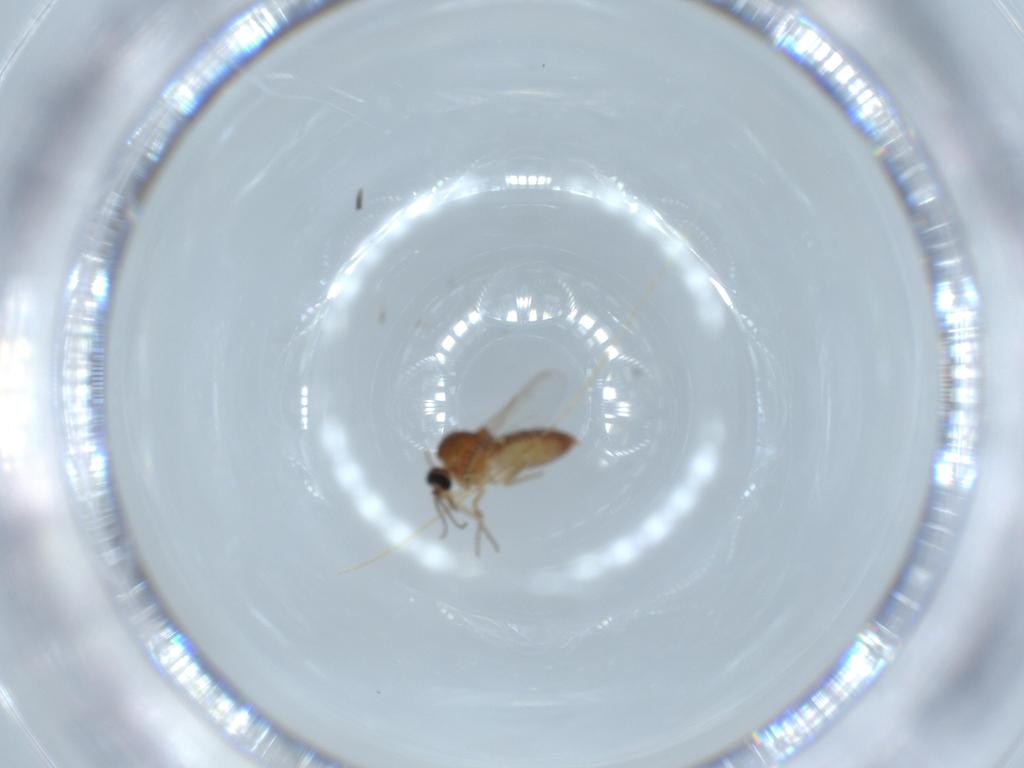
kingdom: Animalia
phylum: Arthropoda
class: Insecta
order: Diptera
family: Ceratopogonidae
